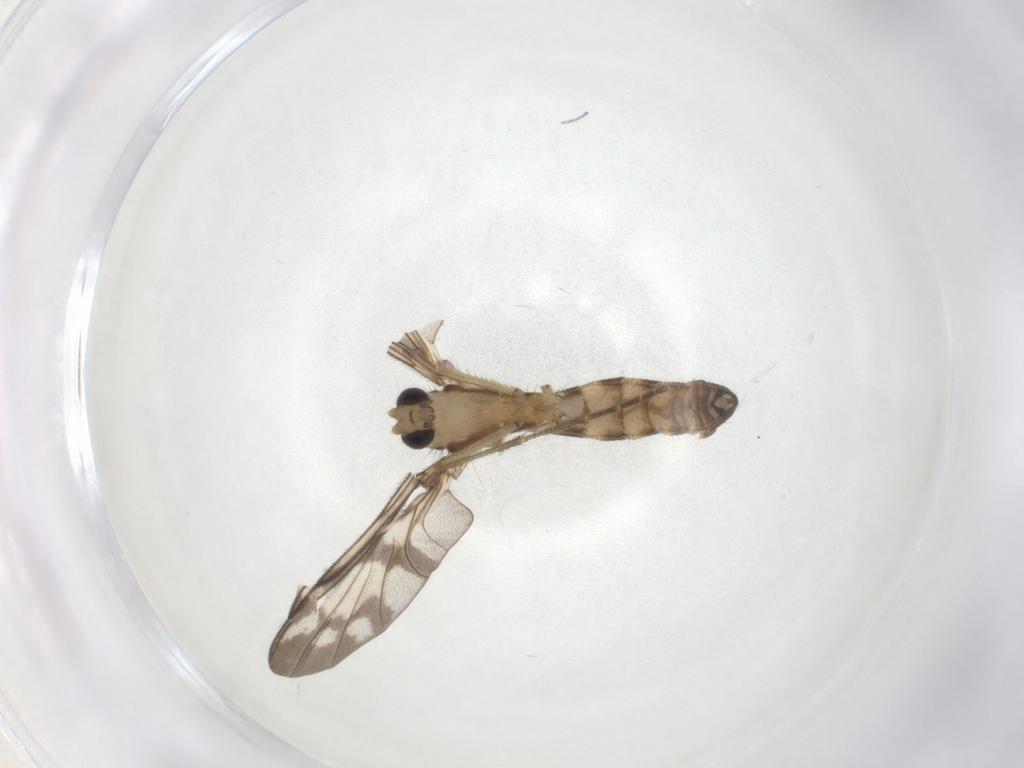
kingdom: Animalia
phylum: Arthropoda
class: Insecta
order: Diptera
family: Keroplatidae
